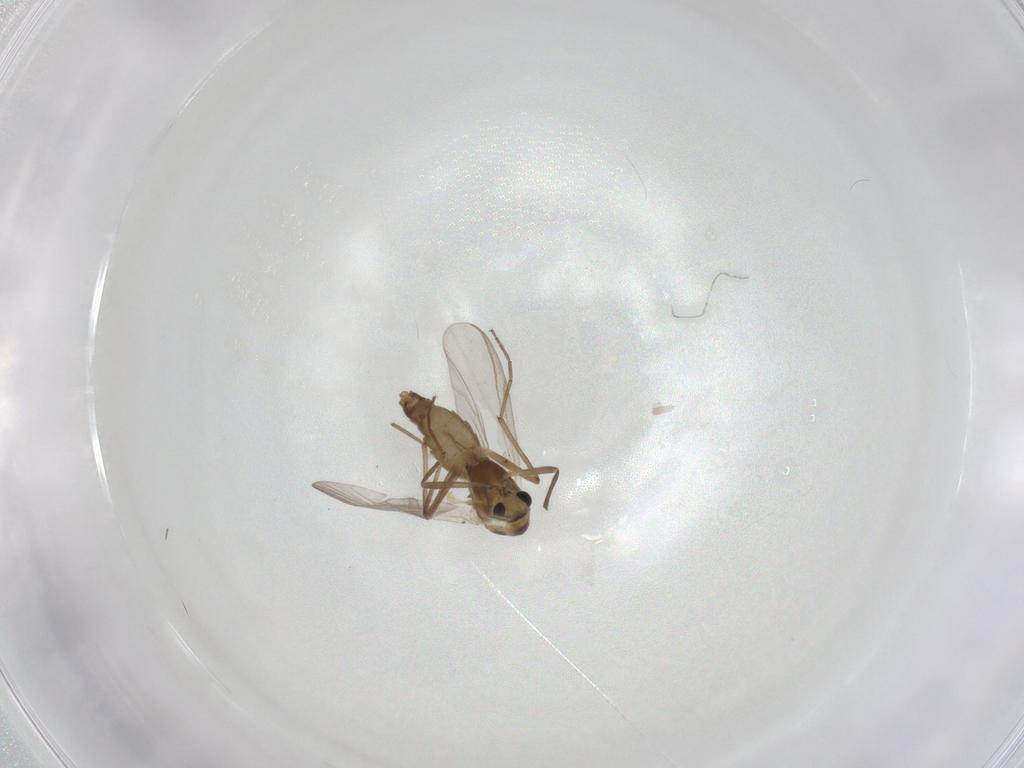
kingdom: Animalia
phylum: Arthropoda
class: Insecta
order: Diptera
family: Chironomidae
